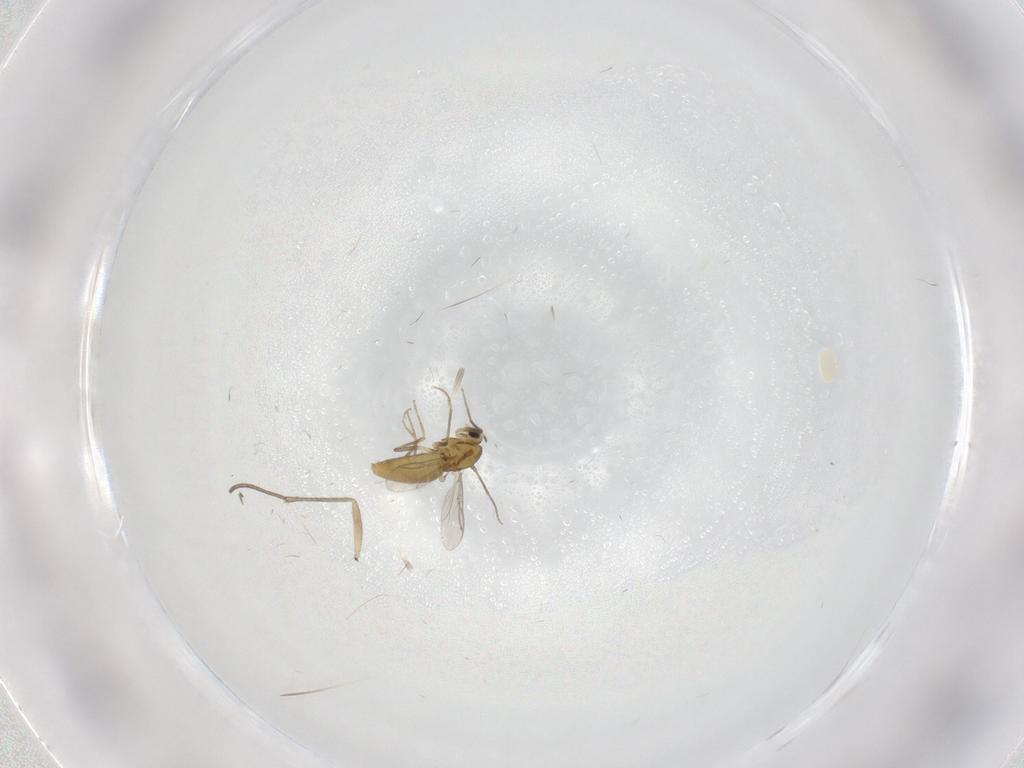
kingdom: Animalia
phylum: Arthropoda
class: Insecta
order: Diptera
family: Chironomidae
